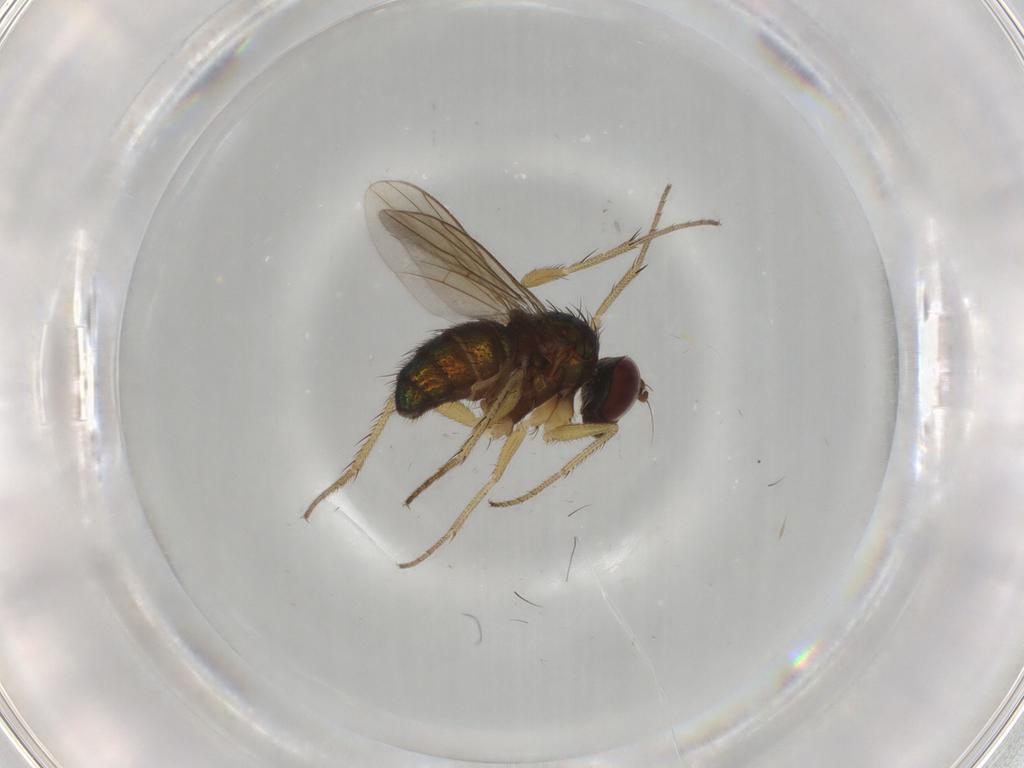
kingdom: Animalia
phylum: Arthropoda
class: Insecta
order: Diptera
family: Dolichopodidae
